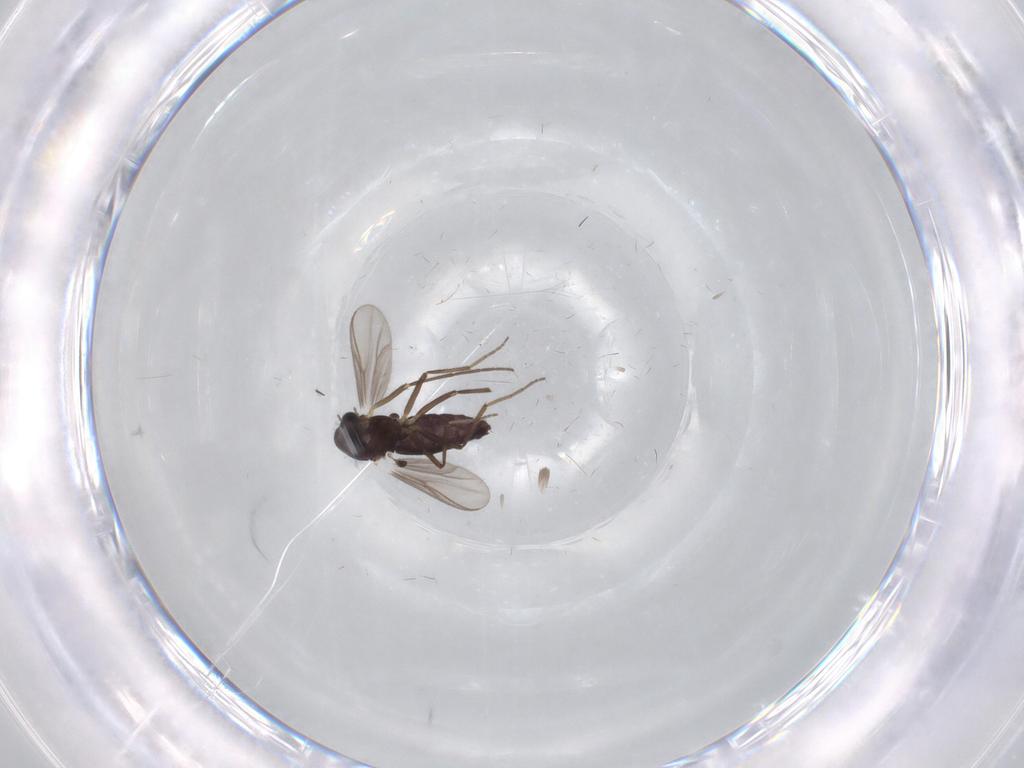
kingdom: Animalia
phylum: Arthropoda
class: Insecta
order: Diptera
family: Chironomidae
